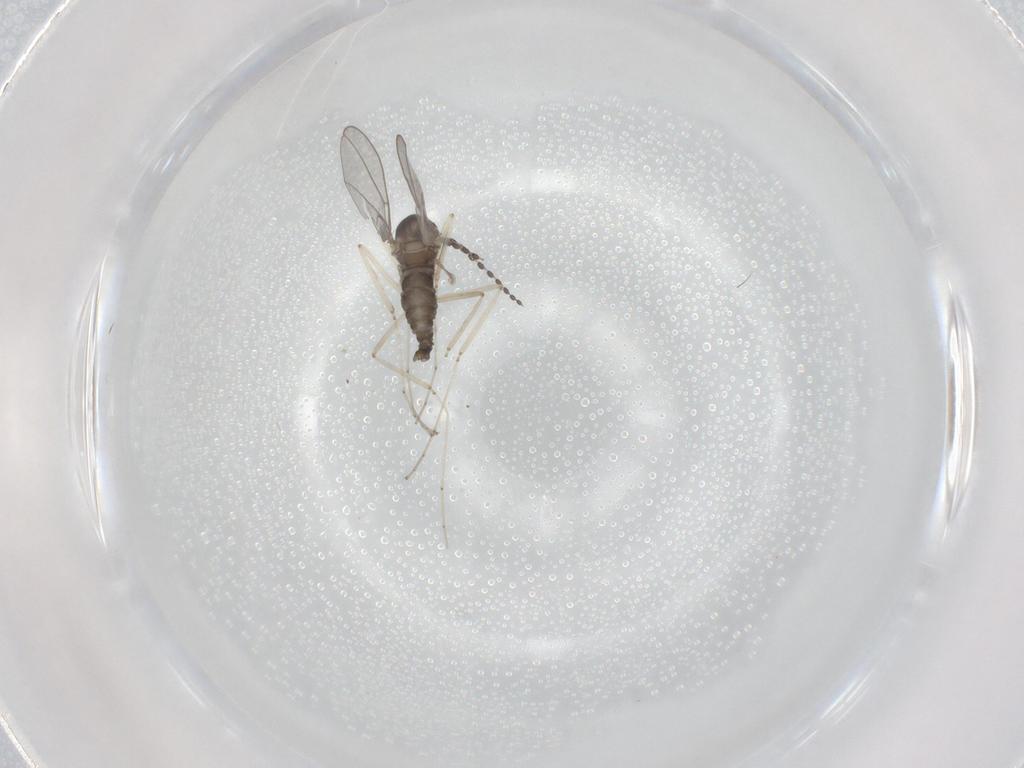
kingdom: Animalia
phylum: Arthropoda
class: Insecta
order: Diptera
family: Cecidomyiidae
